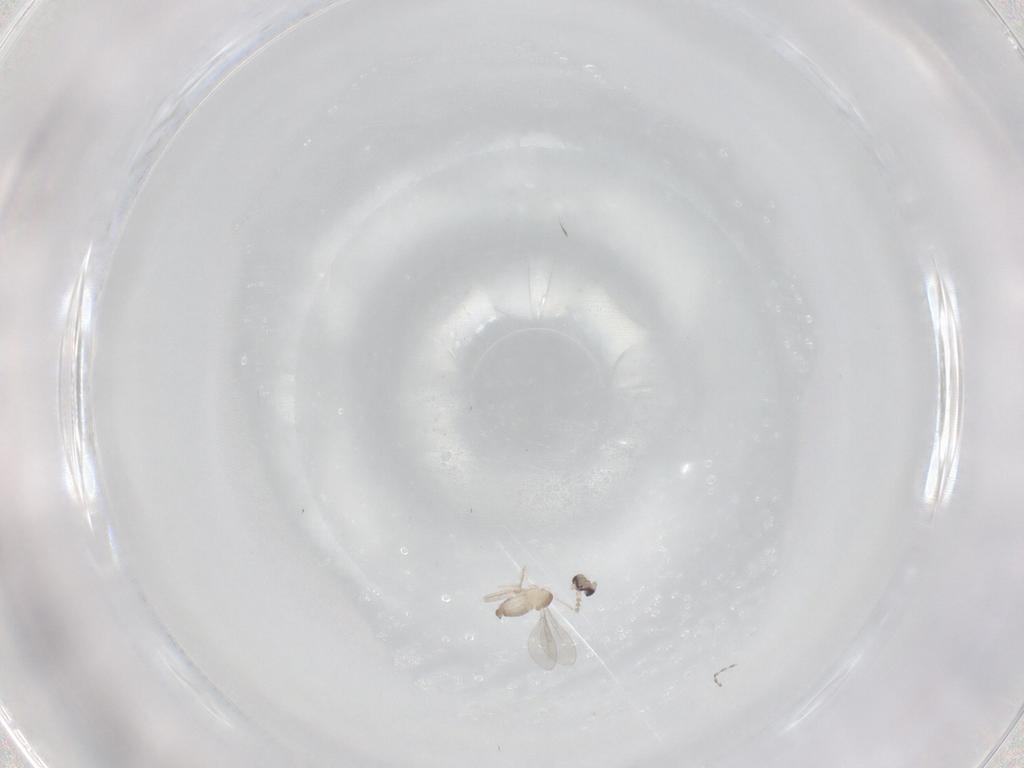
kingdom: Animalia
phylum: Arthropoda
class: Insecta
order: Diptera
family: Cecidomyiidae
